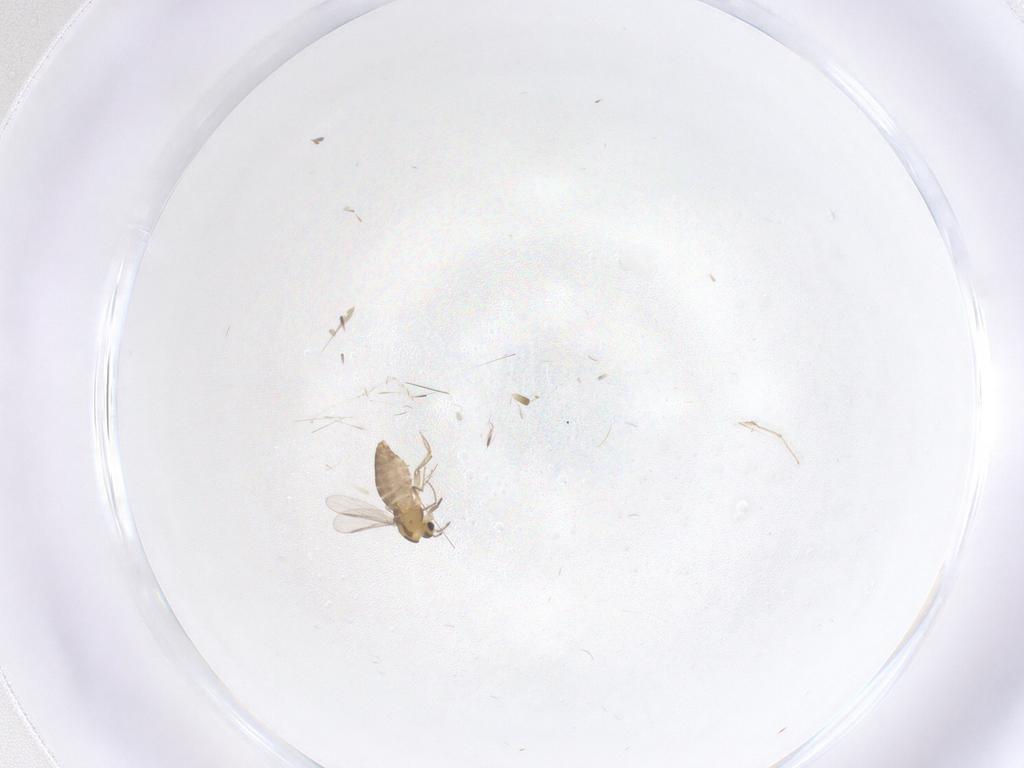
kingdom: Animalia
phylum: Arthropoda
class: Insecta
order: Diptera
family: Chironomidae
